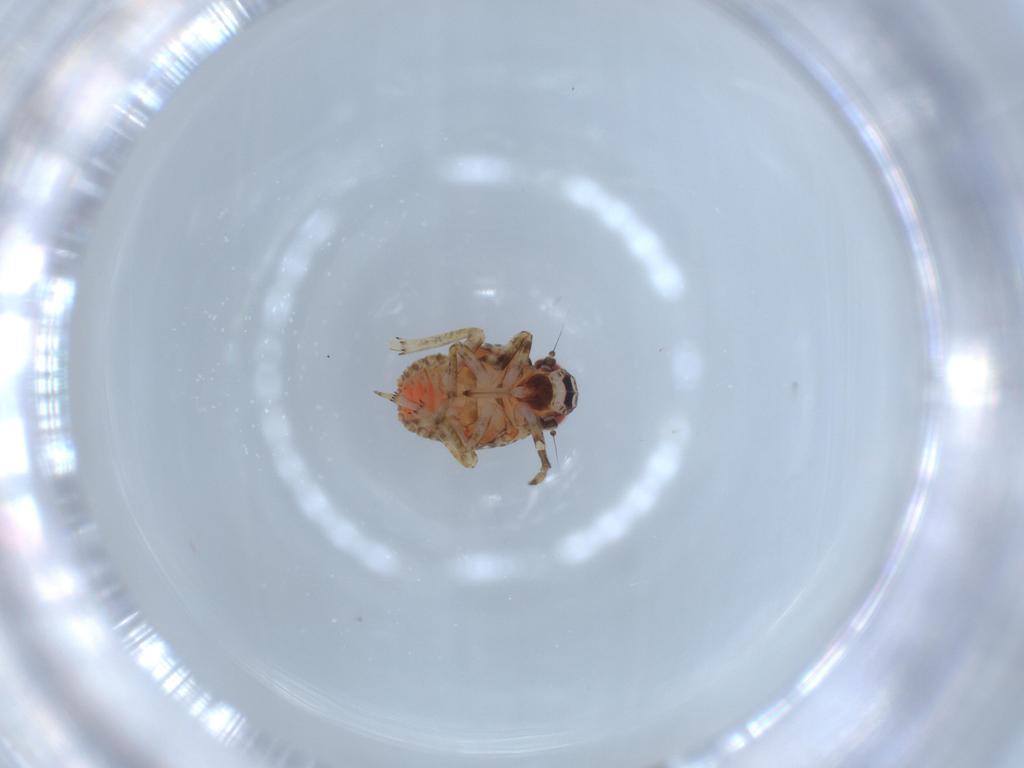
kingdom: Animalia
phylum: Arthropoda
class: Insecta
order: Hemiptera
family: Issidae
